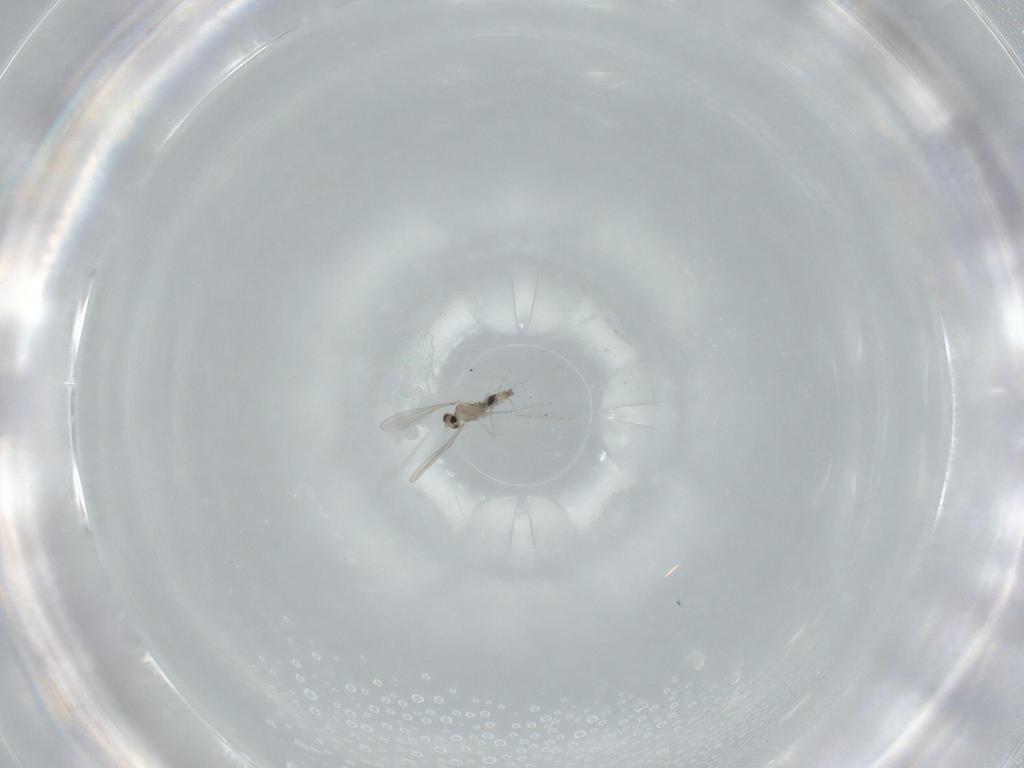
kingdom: Animalia
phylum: Arthropoda
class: Insecta
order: Diptera
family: Cecidomyiidae
